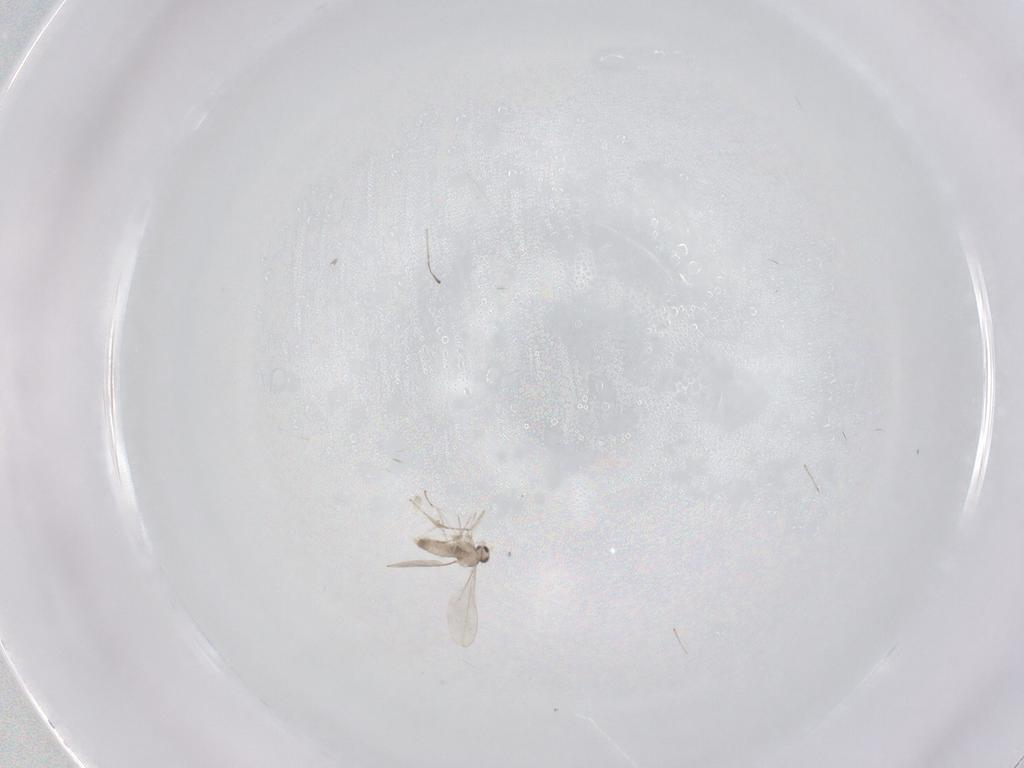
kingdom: Animalia
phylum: Arthropoda
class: Insecta
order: Diptera
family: Cecidomyiidae
